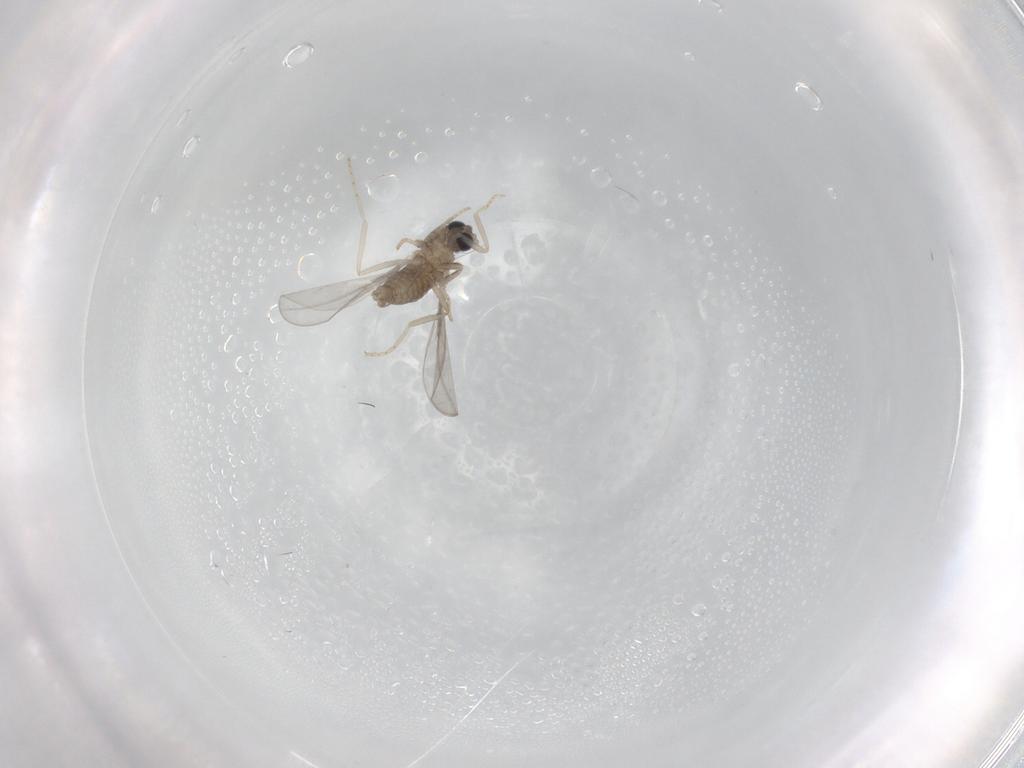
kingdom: Animalia
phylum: Arthropoda
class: Insecta
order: Diptera
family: Cecidomyiidae
